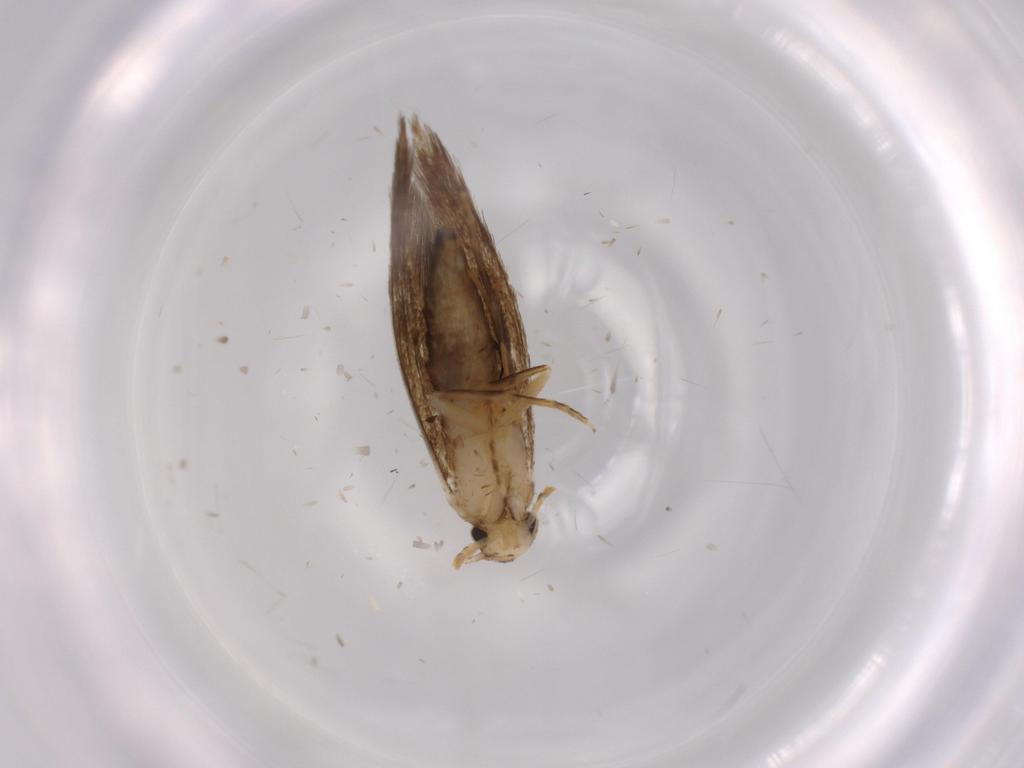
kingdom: Animalia
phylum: Arthropoda
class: Insecta
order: Lepidoptera
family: Tineidae
